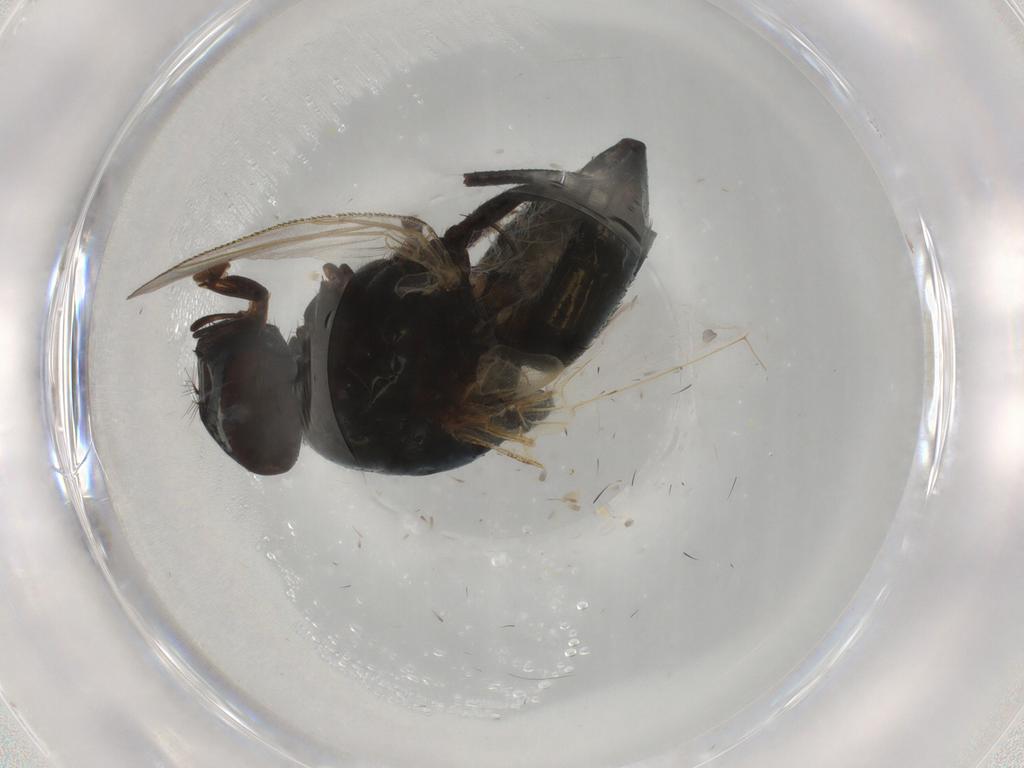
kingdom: Animalia
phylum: Arthropoda
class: Insecta
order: Diptera
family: Muscidae
